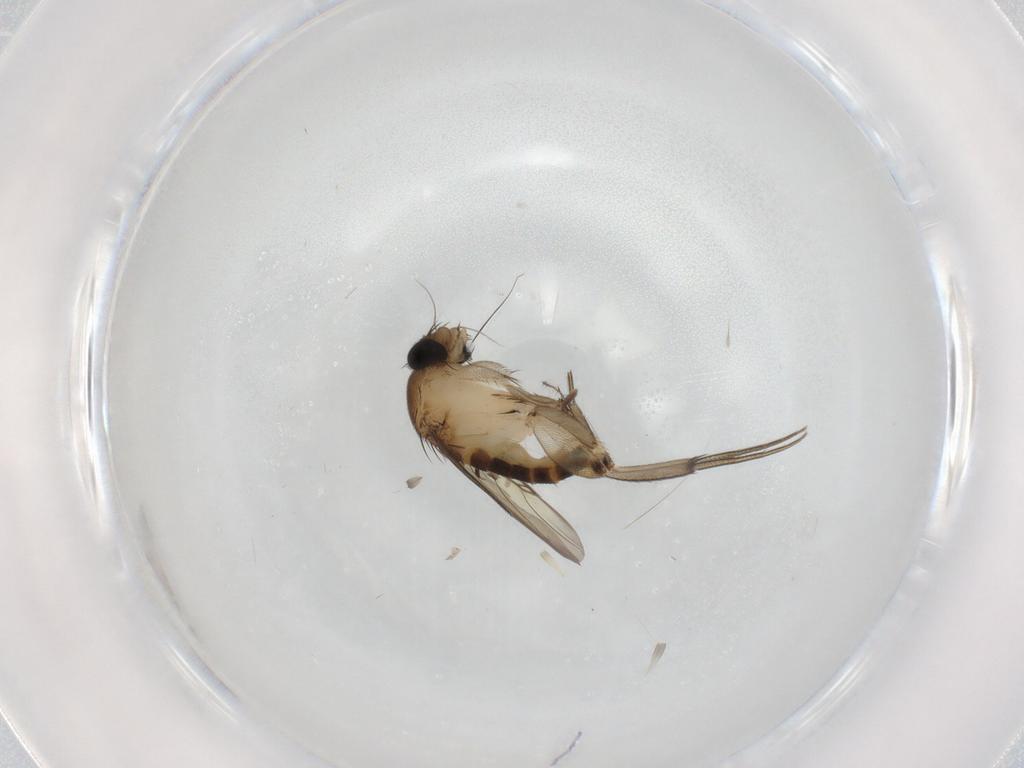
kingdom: Animalia
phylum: Arthropoda
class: Insecta
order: Diptera
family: Phoridae
